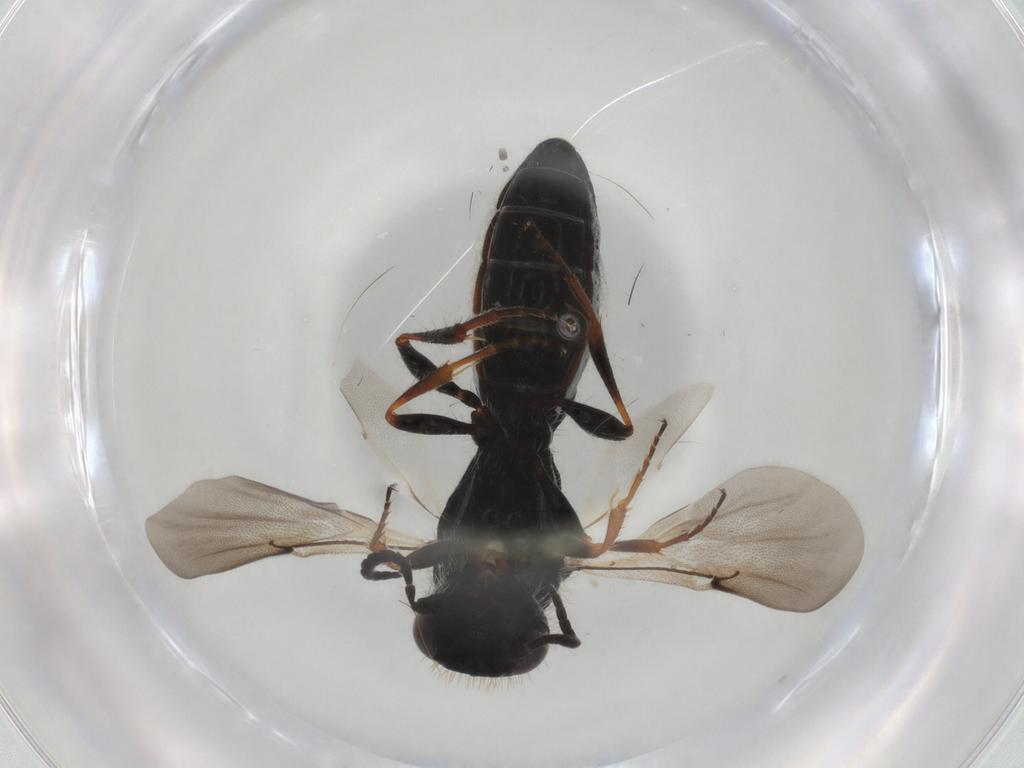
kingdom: Animalia
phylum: Arthropoda
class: Insecta
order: Hymenoptera
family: Scelionidae
